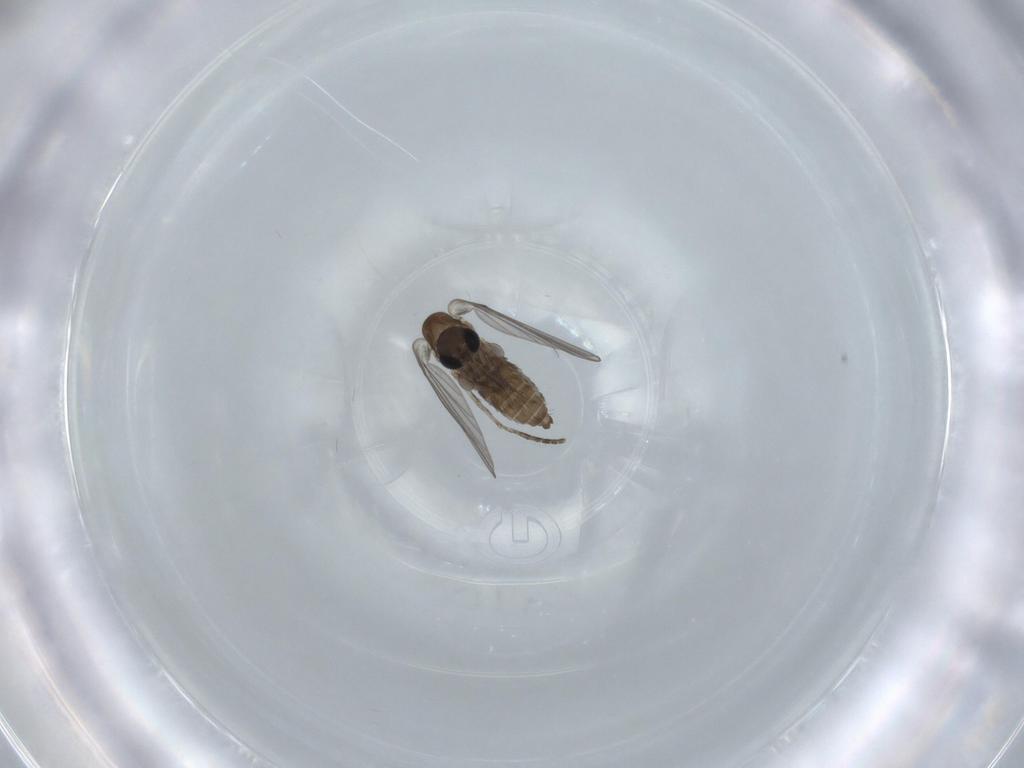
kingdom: Animalia
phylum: Arthropoda
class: Insecta
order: Diptera
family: Psychodidae
